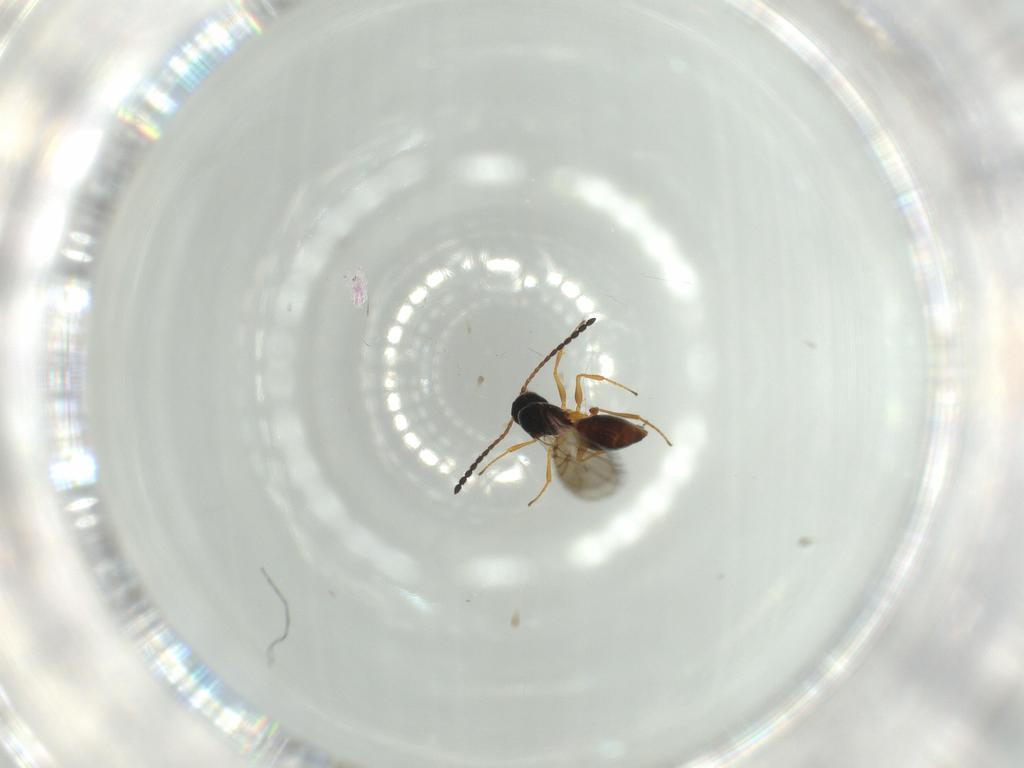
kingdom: Animalia
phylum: Arthropoda
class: Insecta
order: Hymenoptera
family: Figitidae
